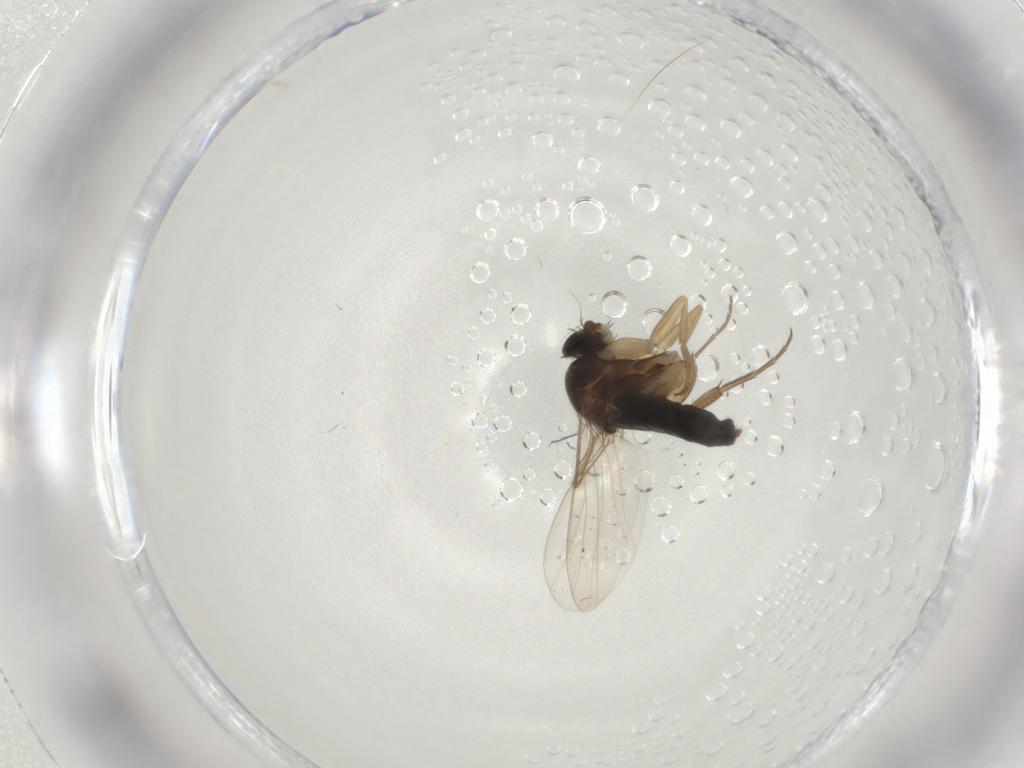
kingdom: Animalia
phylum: Arthropoda
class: Insecta
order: Diptera
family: Phoridae
